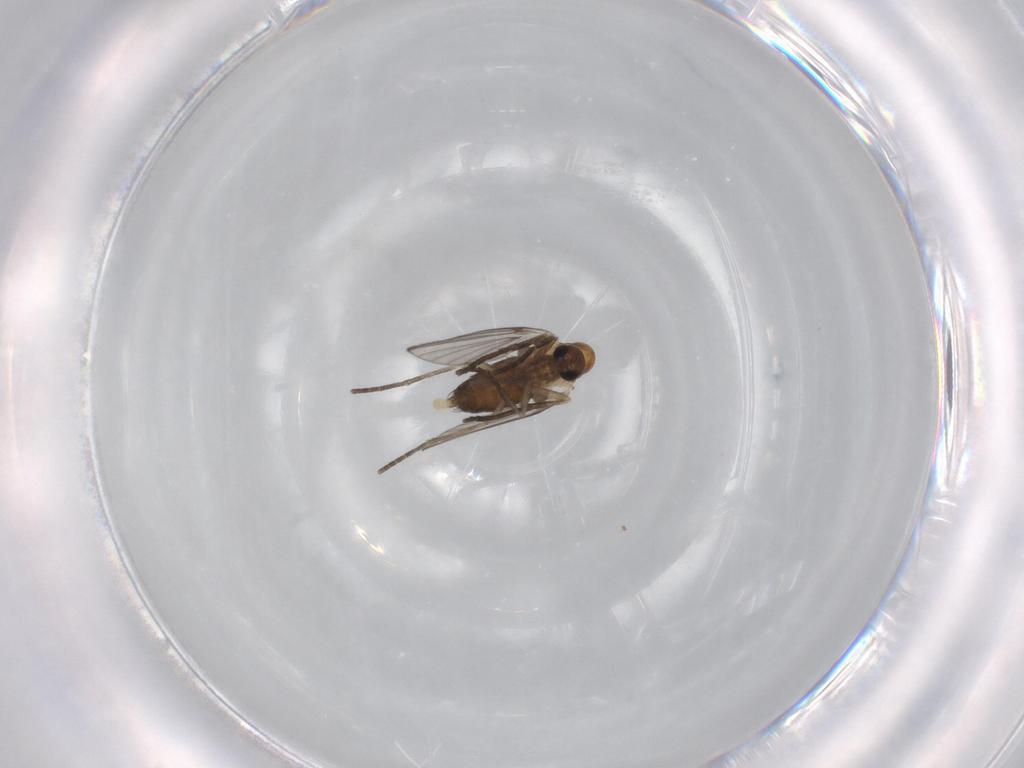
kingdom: Animalia
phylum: Arthropoda
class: Insecta
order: Diptera
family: Psychodidae
